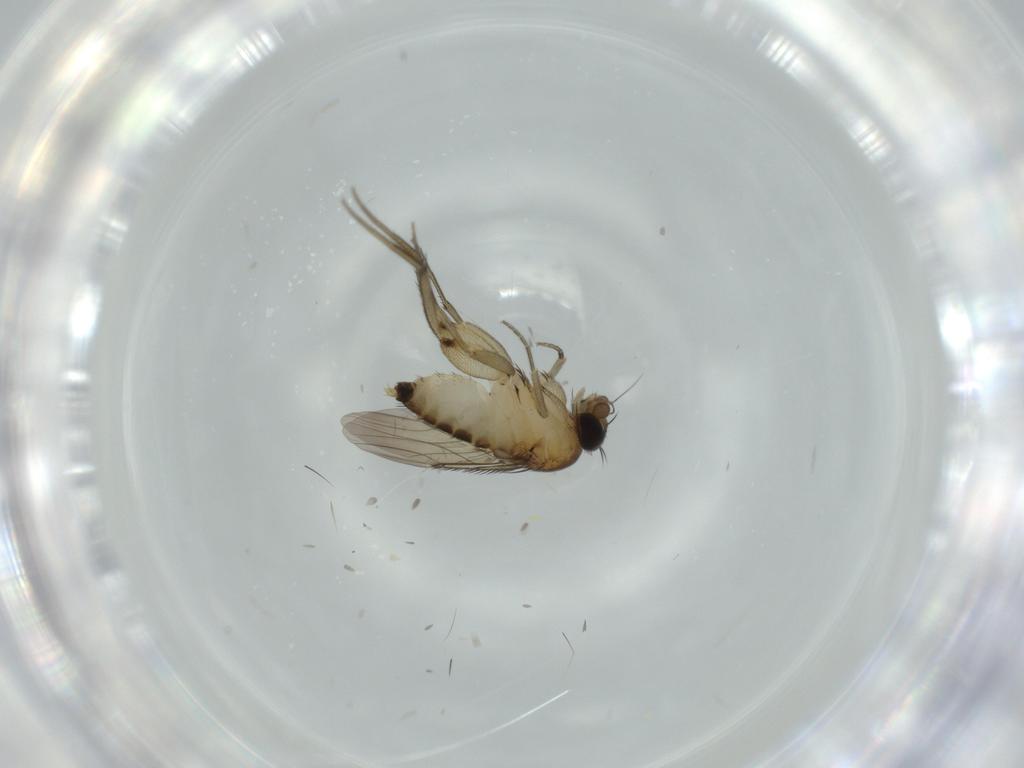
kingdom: Animalia
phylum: Arthropoda
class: Insecta
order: Diptera
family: Phoridae
